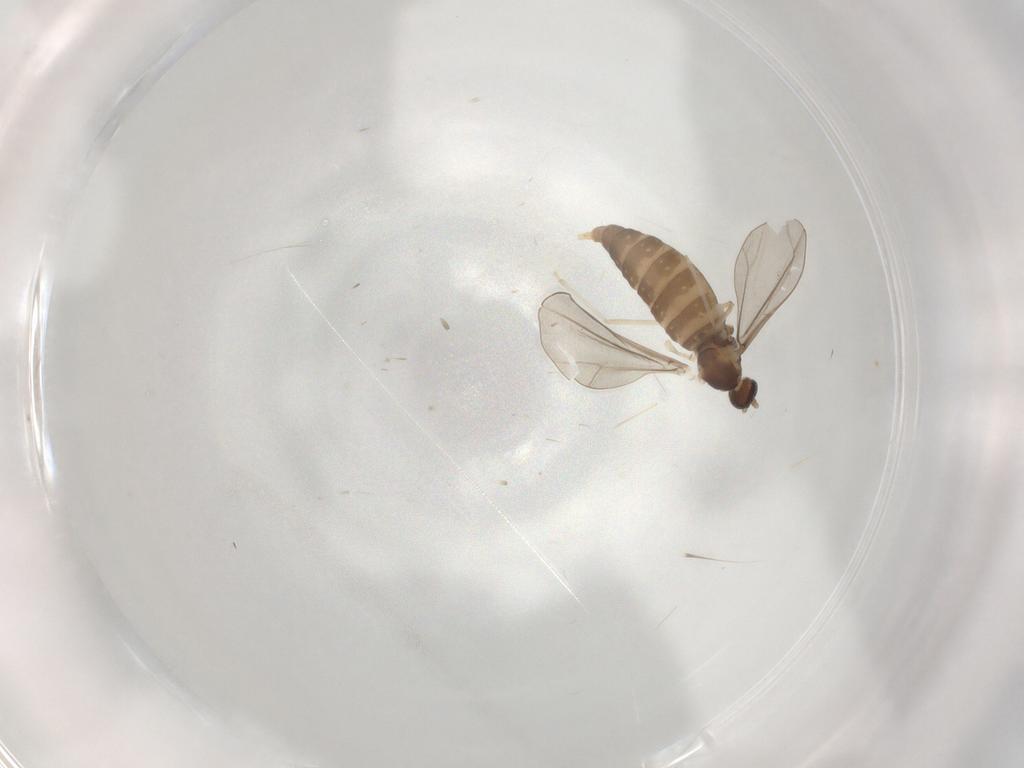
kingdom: Animalia
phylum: Arthropoda
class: Insecta
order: Diptera
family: Cecidomyiidae
